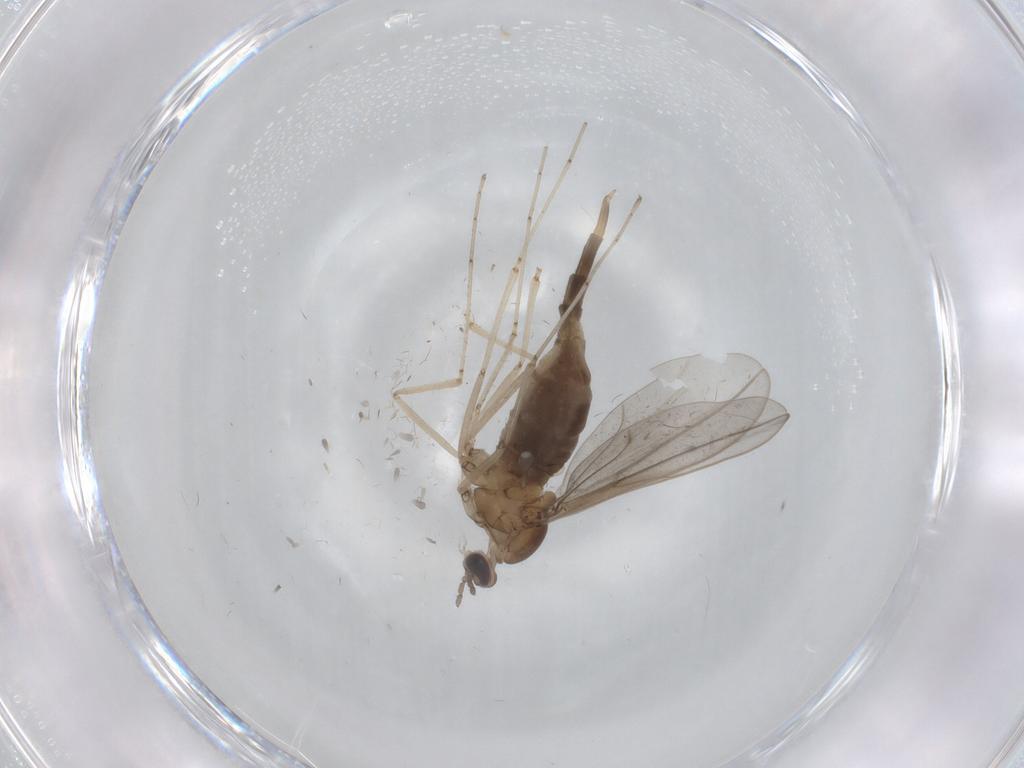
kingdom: Animalia
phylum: Arthropoda
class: Insecta
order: Diptera
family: Cecidomyiidae
